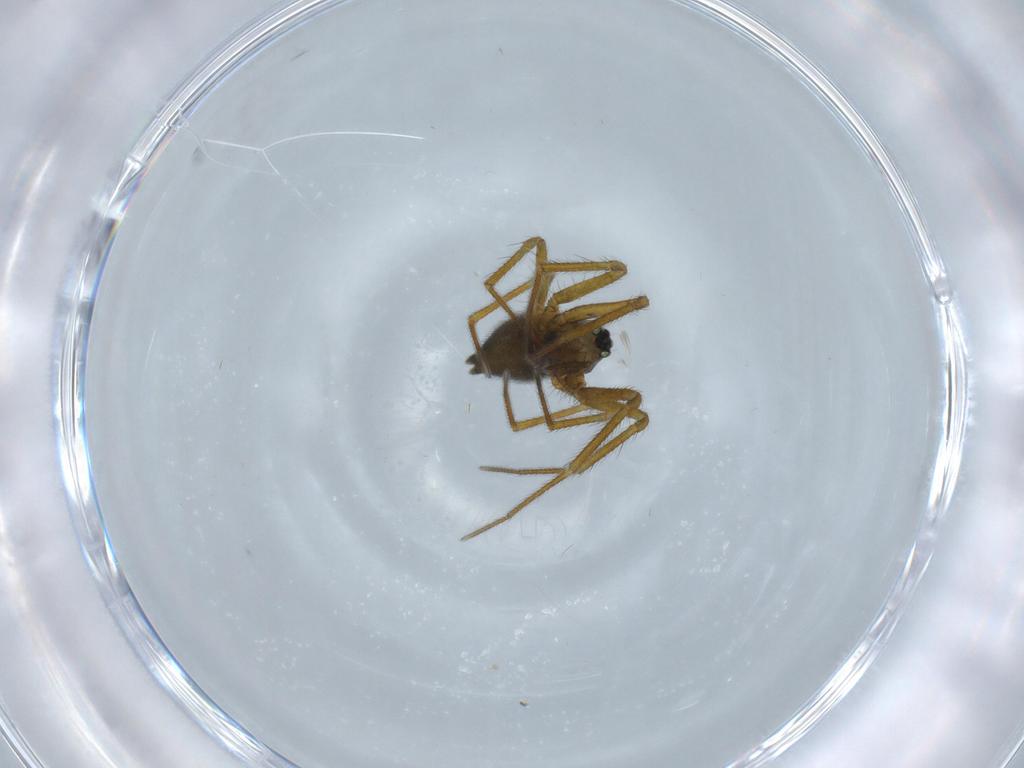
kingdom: Animalia
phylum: Arthropoda
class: Arachnida
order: Araneae
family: Linyphiidae
